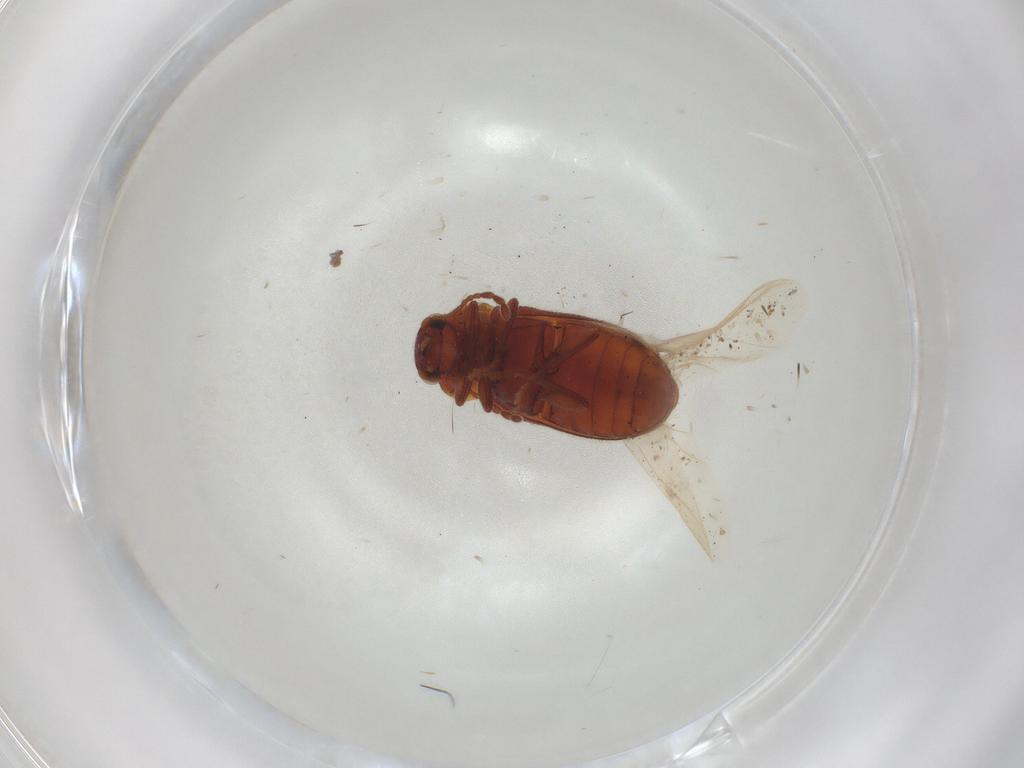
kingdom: Animalia
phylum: Arthropoda
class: Insecta
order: Coleoptera
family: Ptinidae
